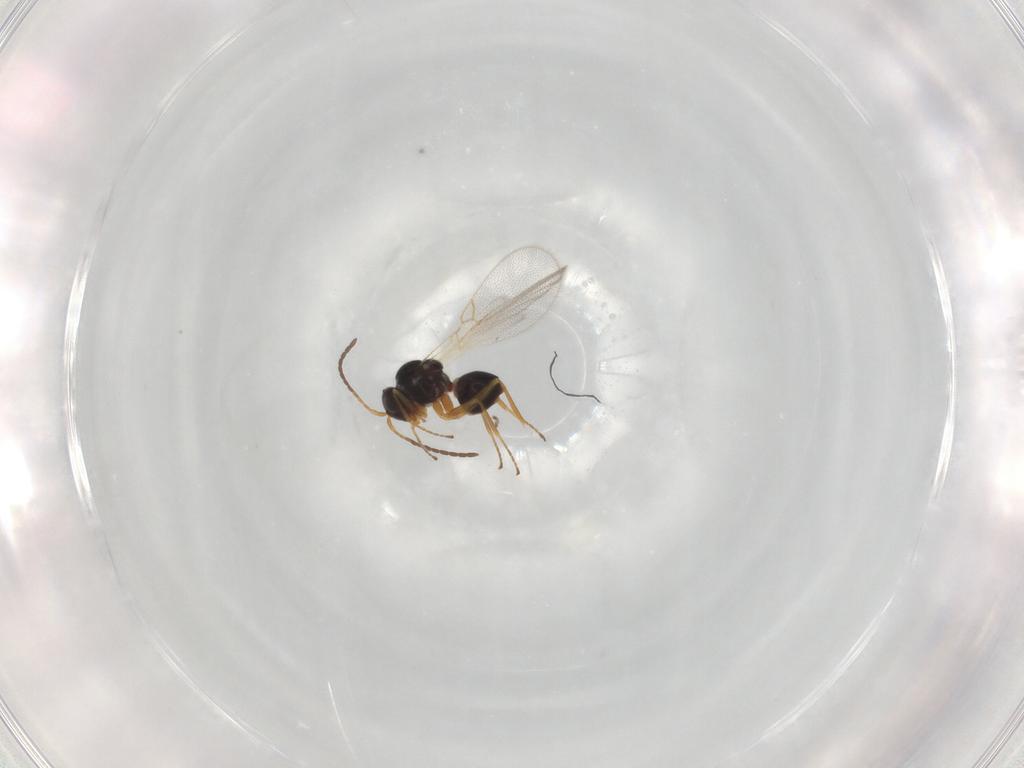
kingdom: Animalia
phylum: Arthropoda
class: Insecta
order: Hymenoptera
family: Figitidae
